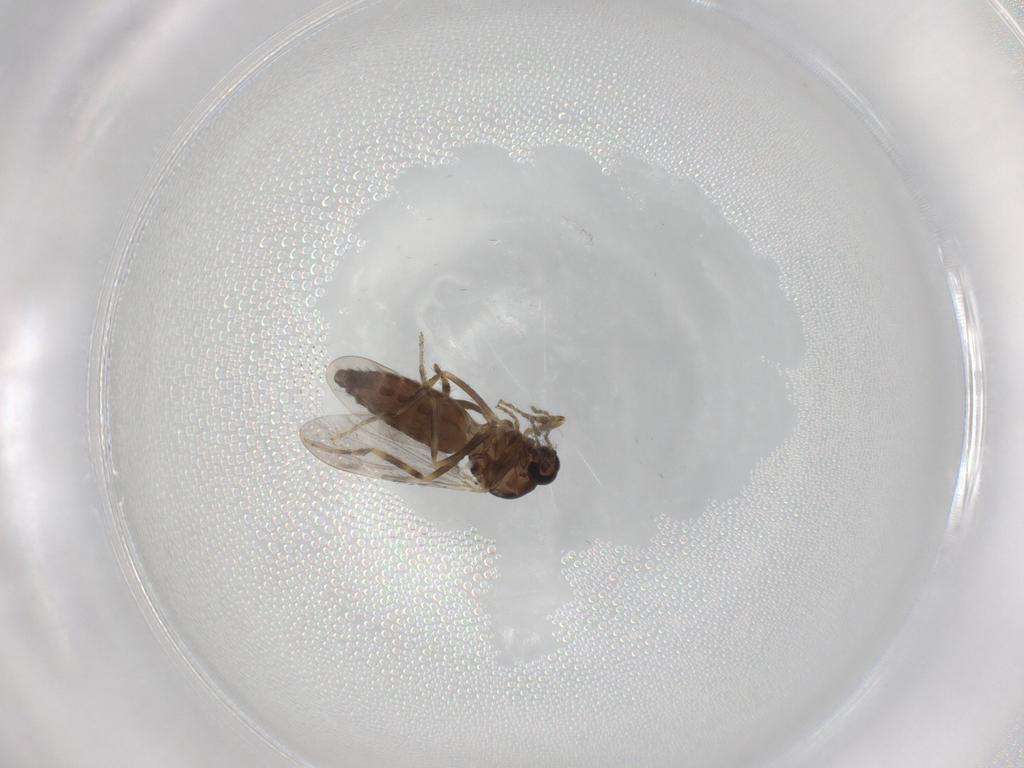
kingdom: Animalia
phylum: Arthropoda
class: Insecta
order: Diptera
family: Ceratopogonidae
